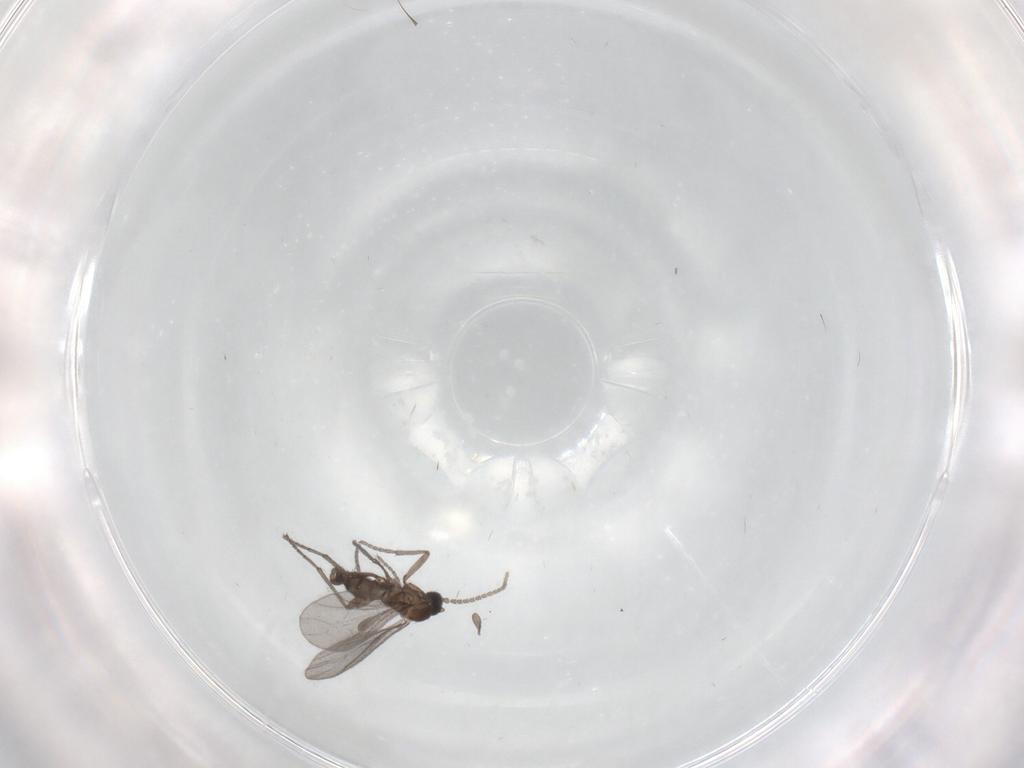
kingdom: Animalia
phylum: Arthropoda
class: Insecta
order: Diptera
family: Sciaridae
